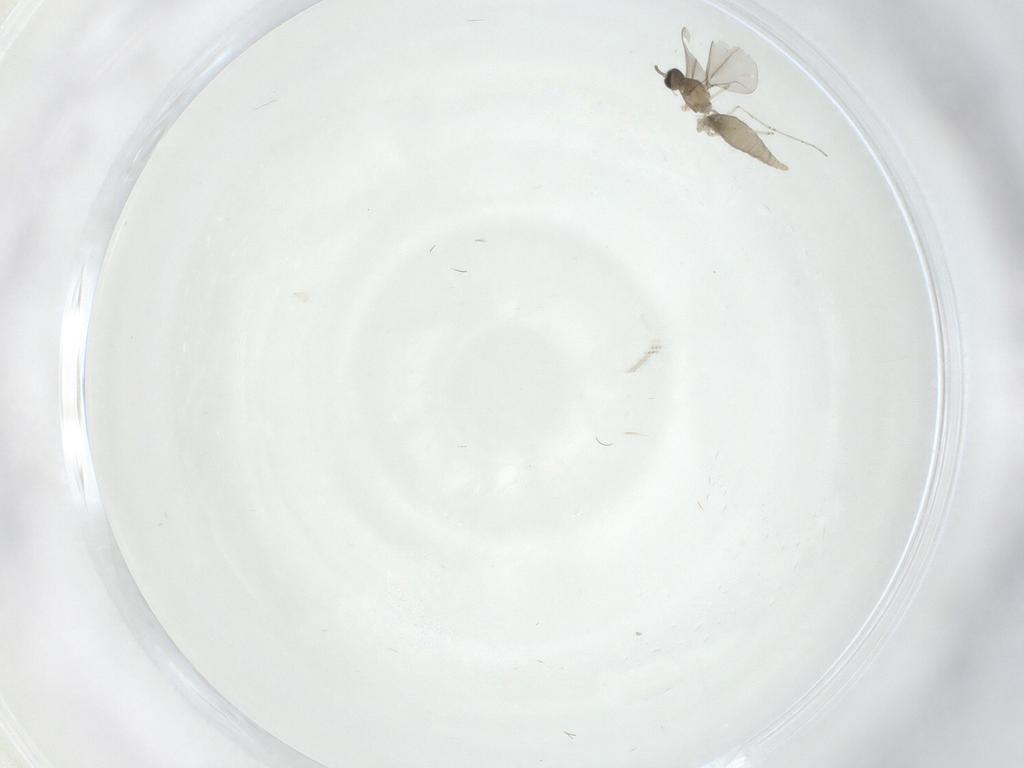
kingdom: Animalia
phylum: Arthropoda
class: Insecta
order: Diptera
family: Cecidomyiidae
